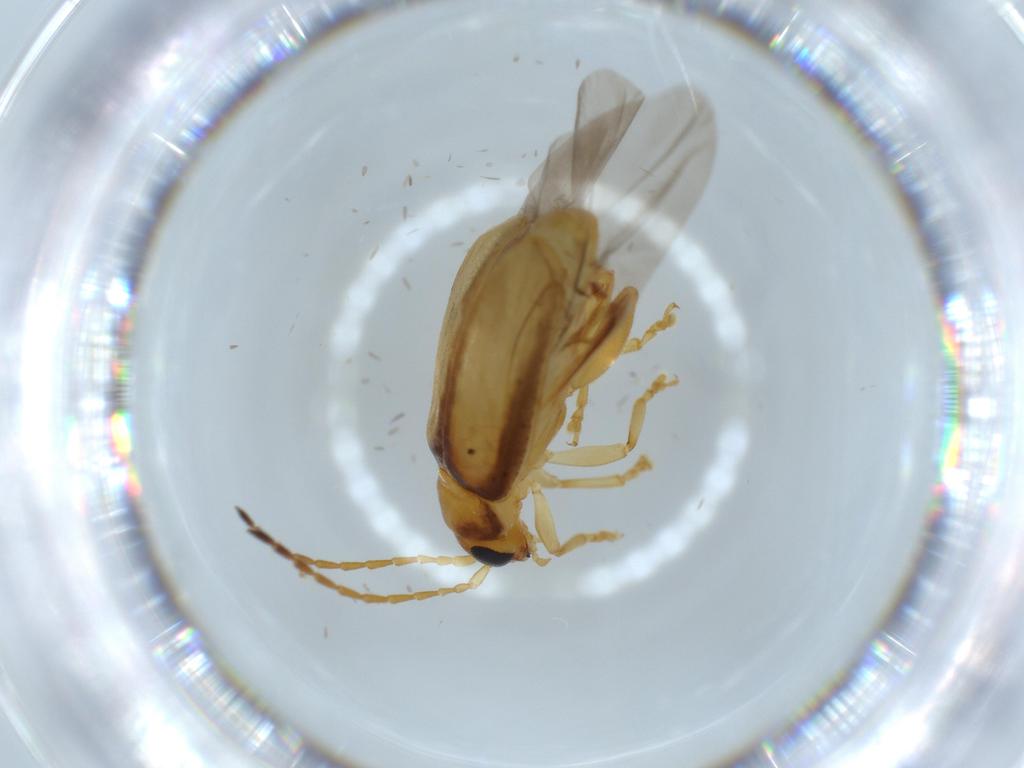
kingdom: Animalia
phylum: Arthropoda
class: Insecta
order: Coleoptera
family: Chrysomelidae
